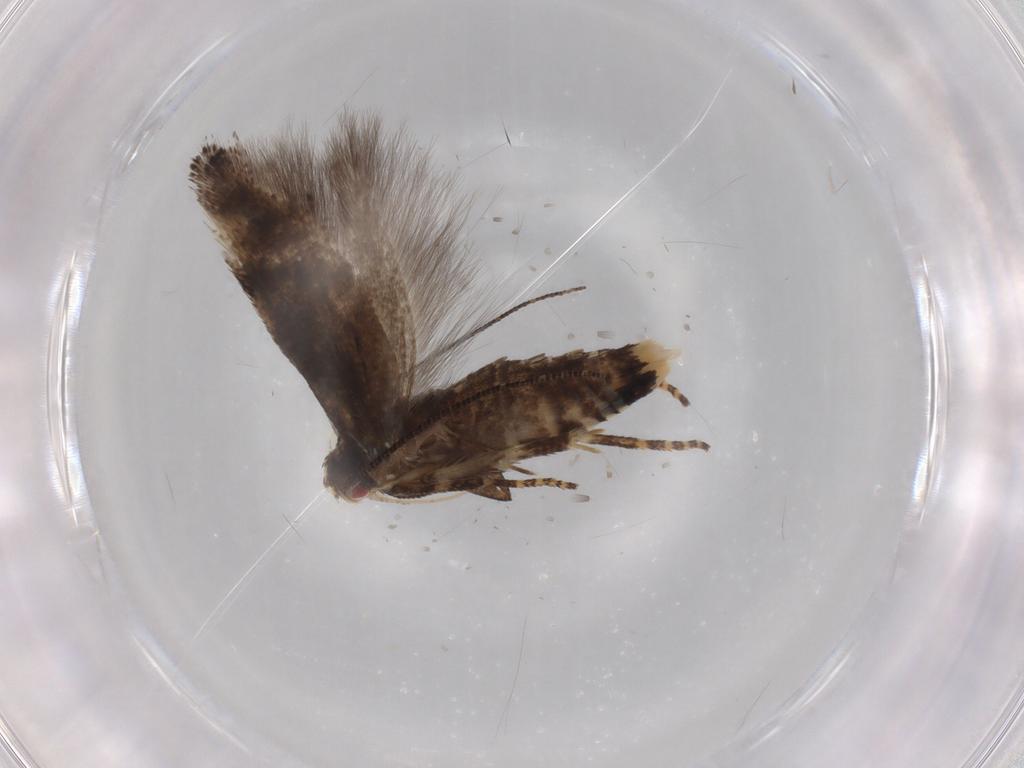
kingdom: Animalia
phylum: Arthropoda
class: Insecta
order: Lepidoptera
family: Momphidae
